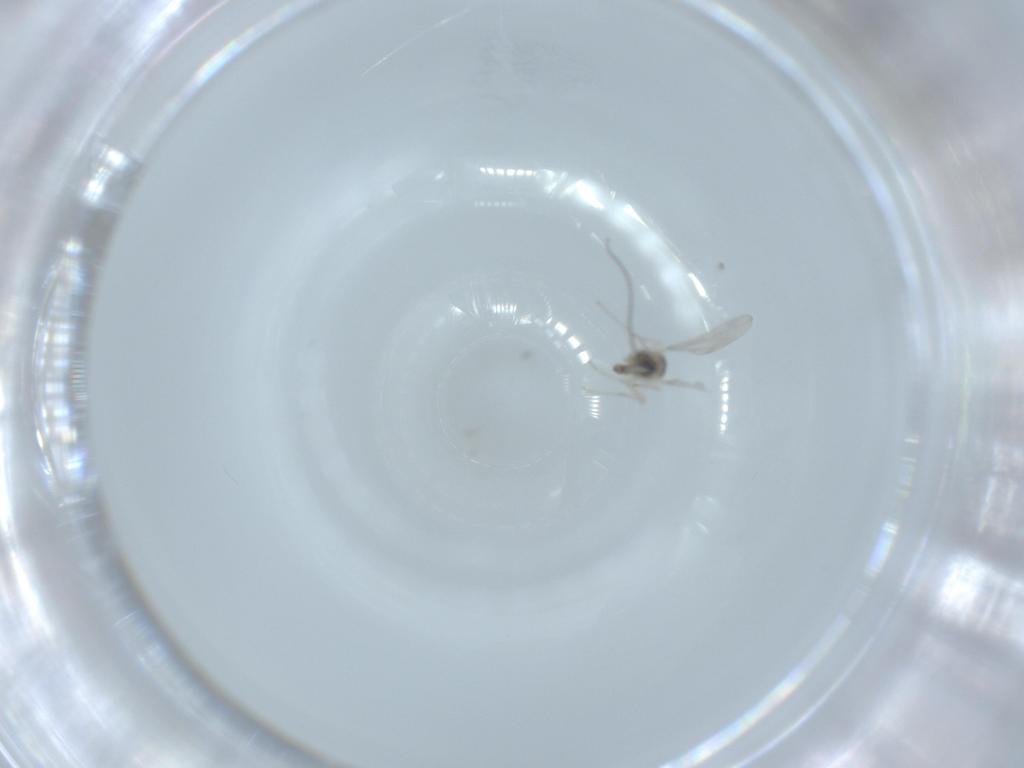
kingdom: Animalia
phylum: Arthropoda
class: Insecta
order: Diptera
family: Cecidomyiidae
